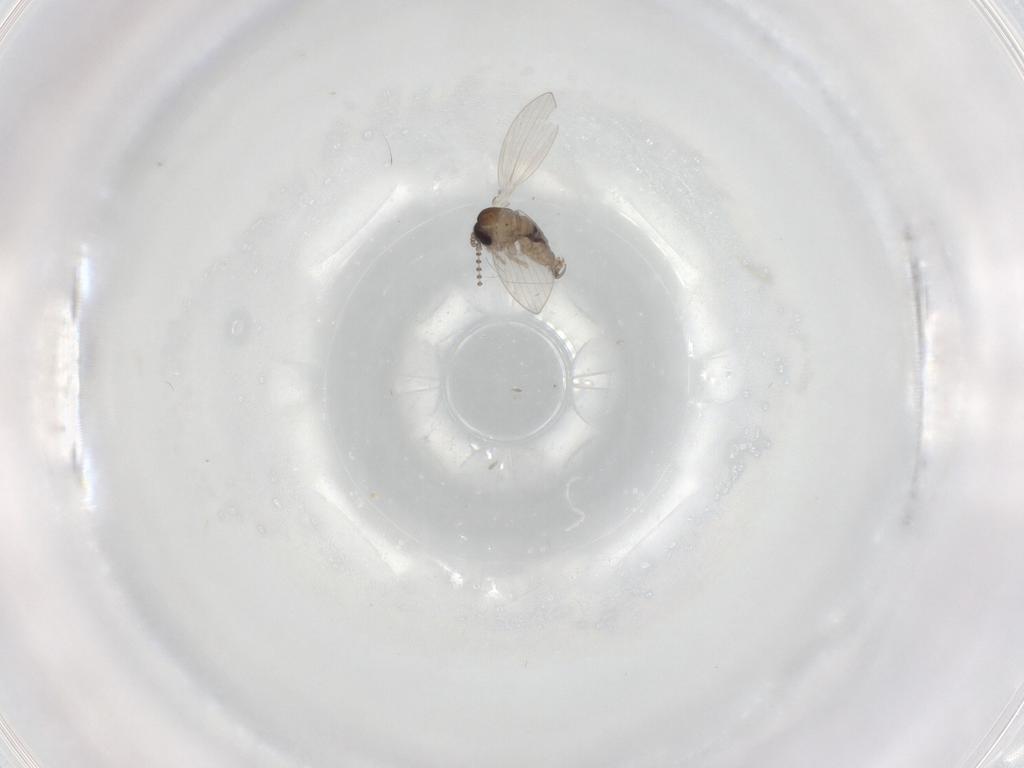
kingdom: Animalia
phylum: Arthropoda
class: Insecta
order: Diptera
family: Psychodidae
